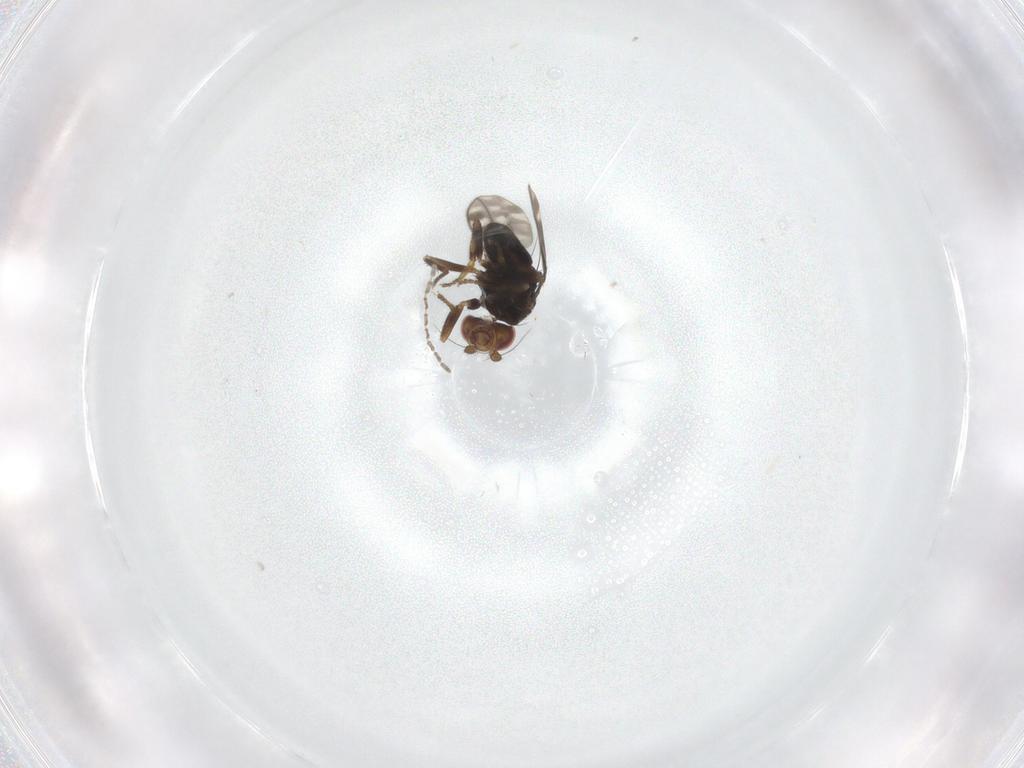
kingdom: Animalia
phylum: Arthropoda
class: Insecta
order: Diptera
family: Sphaeroceridae
